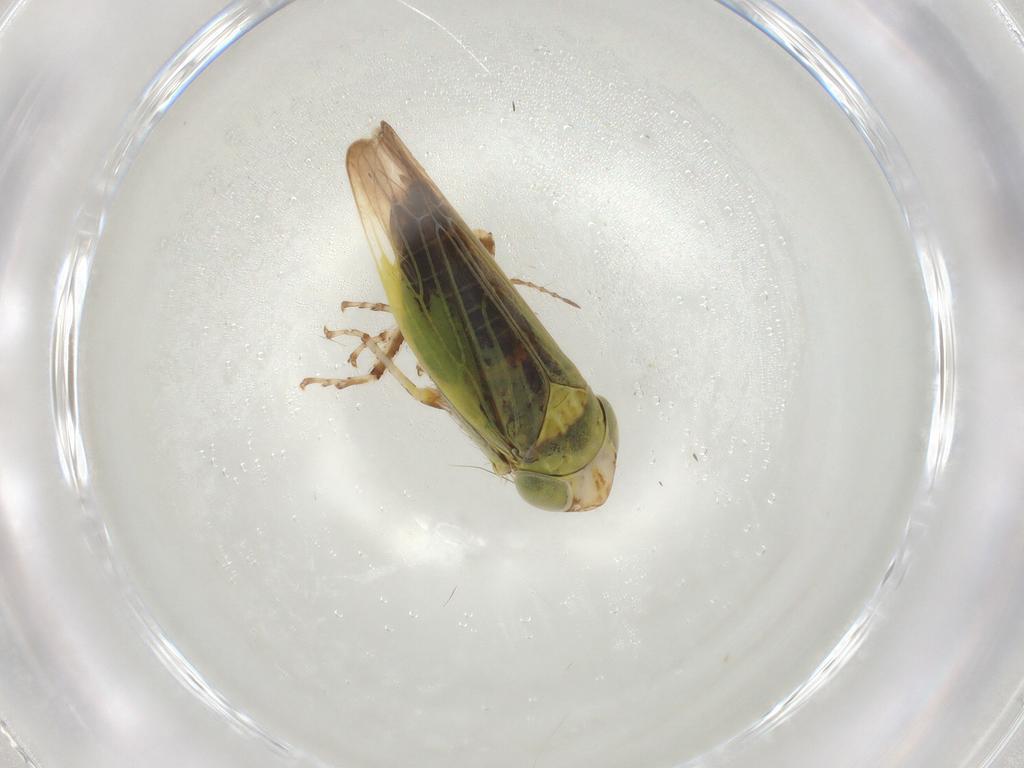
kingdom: Animalia
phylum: Arthropoda
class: Insecta
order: Hemiptera
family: Cicadellidae
